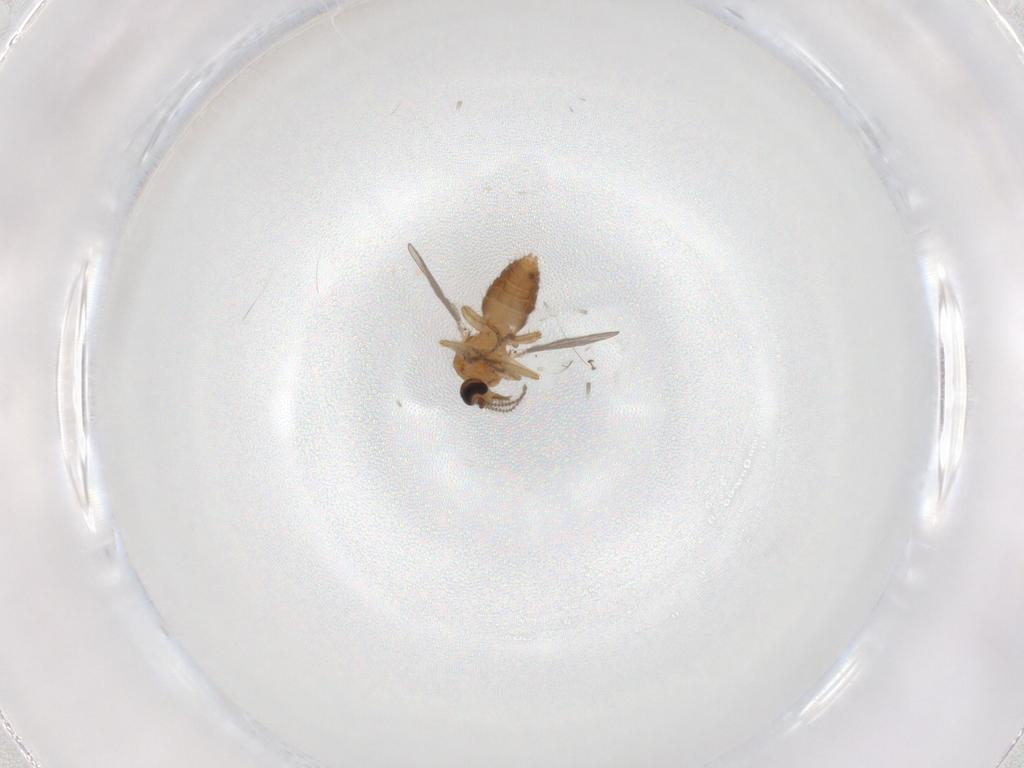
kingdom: Animalia
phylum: Arthropoda
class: Insecta
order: Diptera
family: Ceratopogonidae
